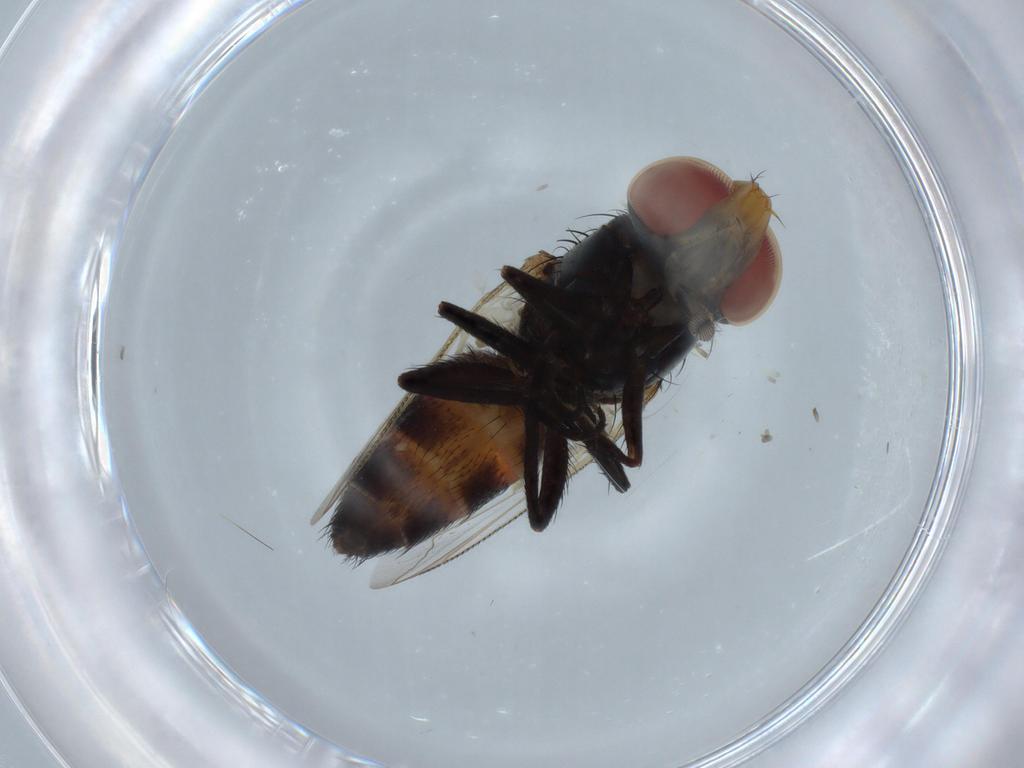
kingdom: Animalia
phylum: Arthropoda
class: Insecta
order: Diptera
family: Sarcophagidae
